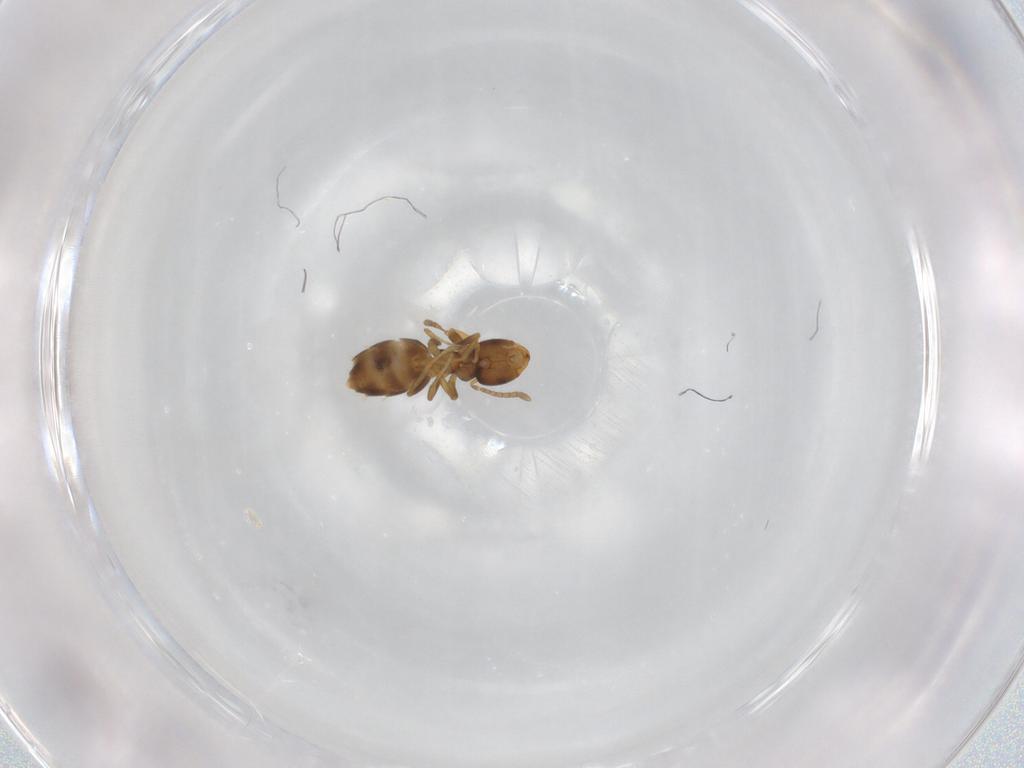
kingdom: Animalia
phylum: Arthropoda
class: Insecta
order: Hymenoptera
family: Formicidae
